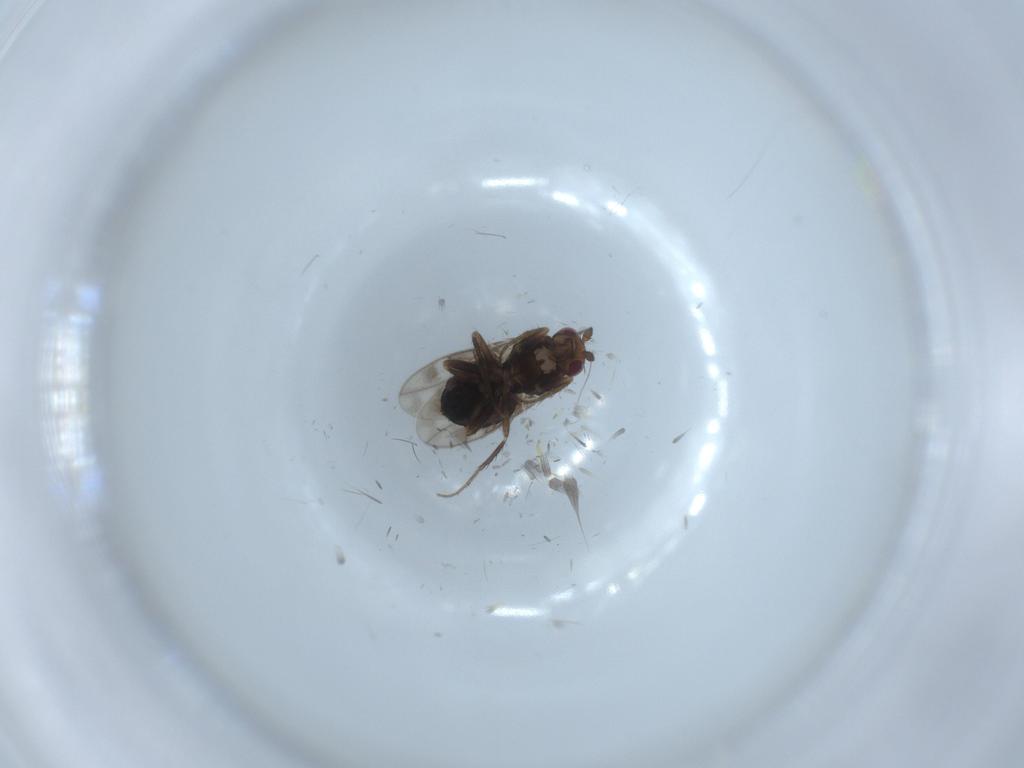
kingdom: Animalia
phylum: Arthropoda
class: Insecta
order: Diptera
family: Sphaeroceridae
